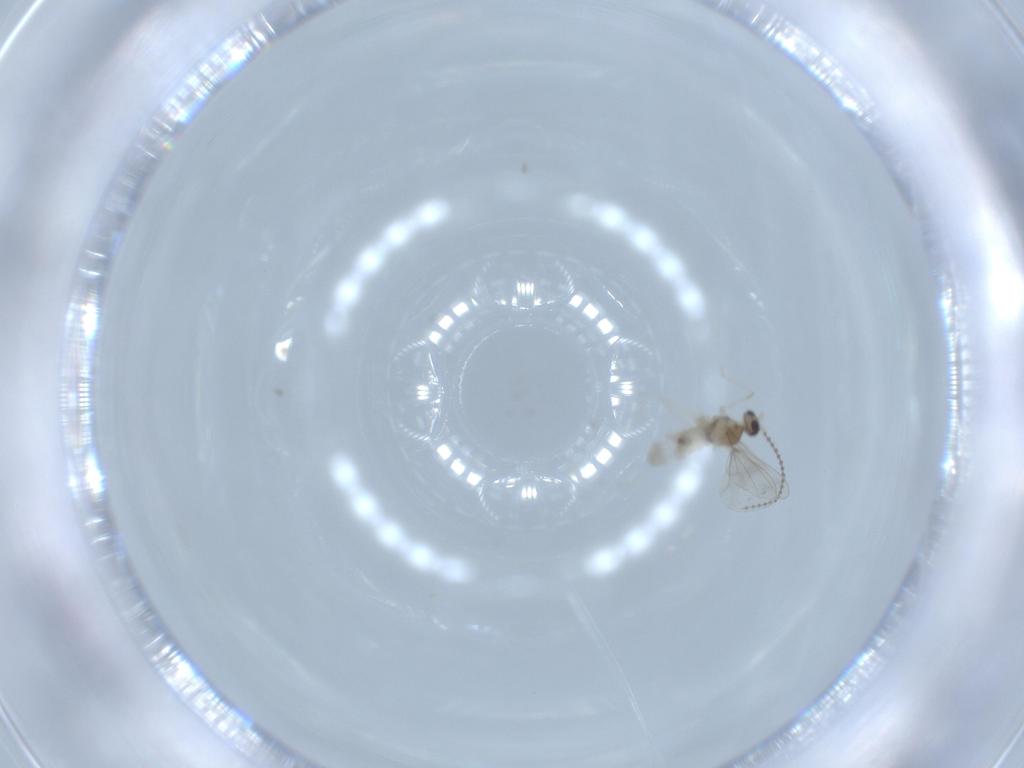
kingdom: Animalia
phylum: Arthropoda
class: Insecta
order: Diptera
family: Cecidomyiidae
